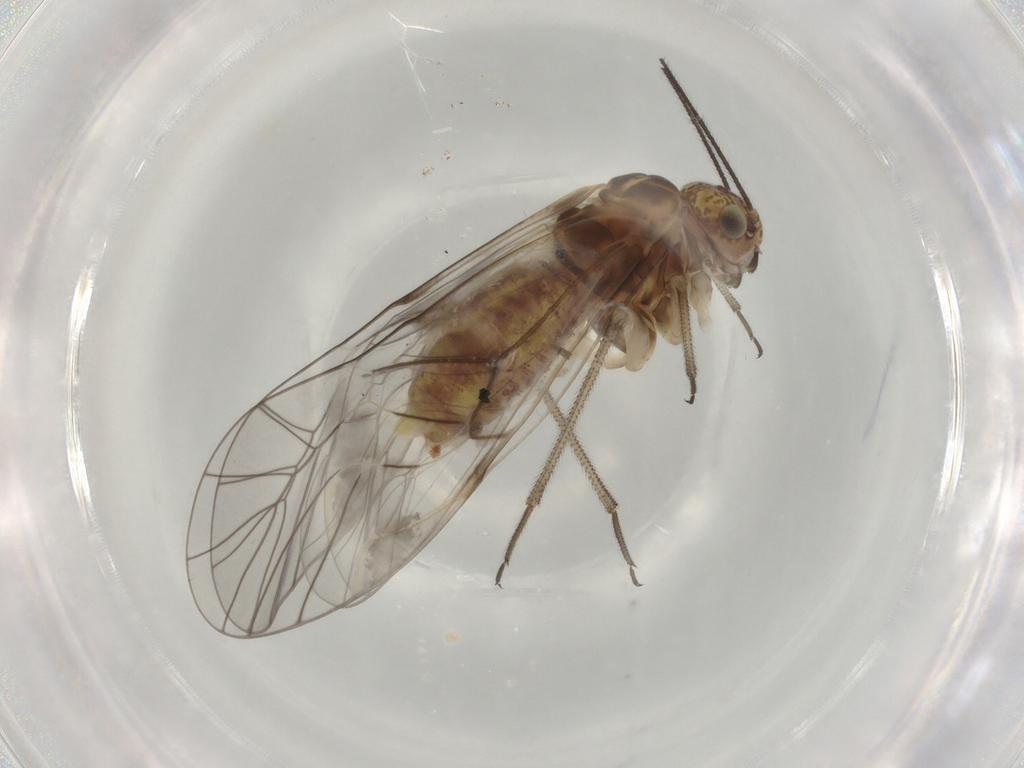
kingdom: Animalia
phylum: Arthropoda
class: Insecta
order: Psocodea
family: Archipsocidae
